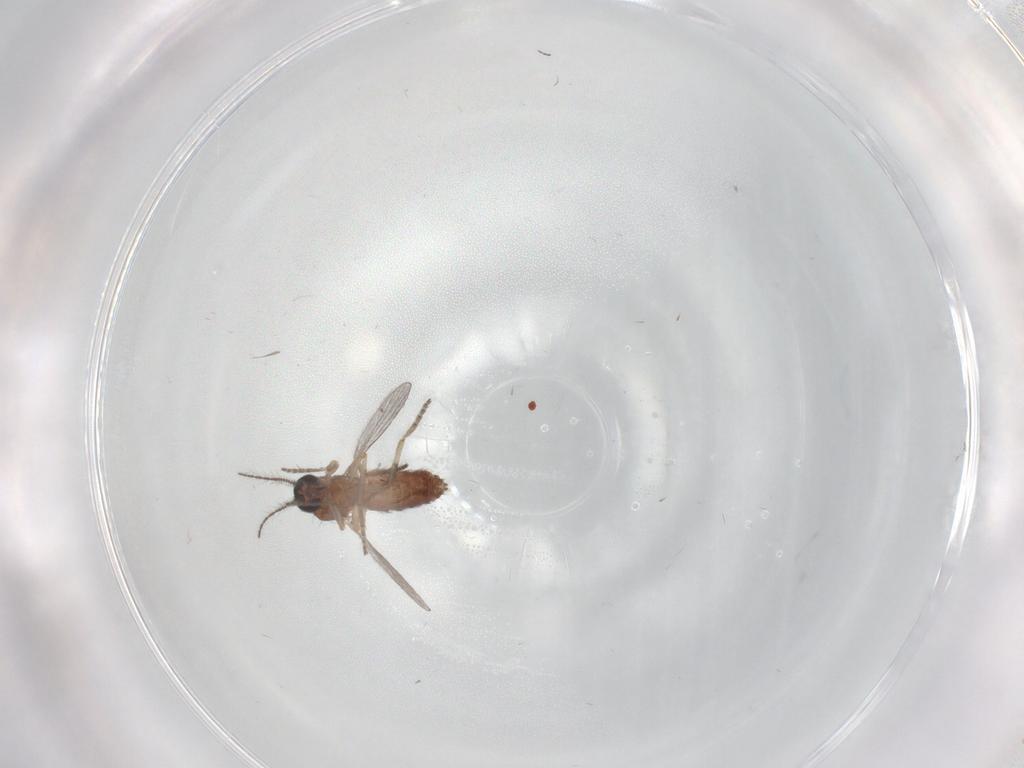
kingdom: Animalia
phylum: Arthropoda
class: Insecta
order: Diptera
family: Ceratopogonidae
